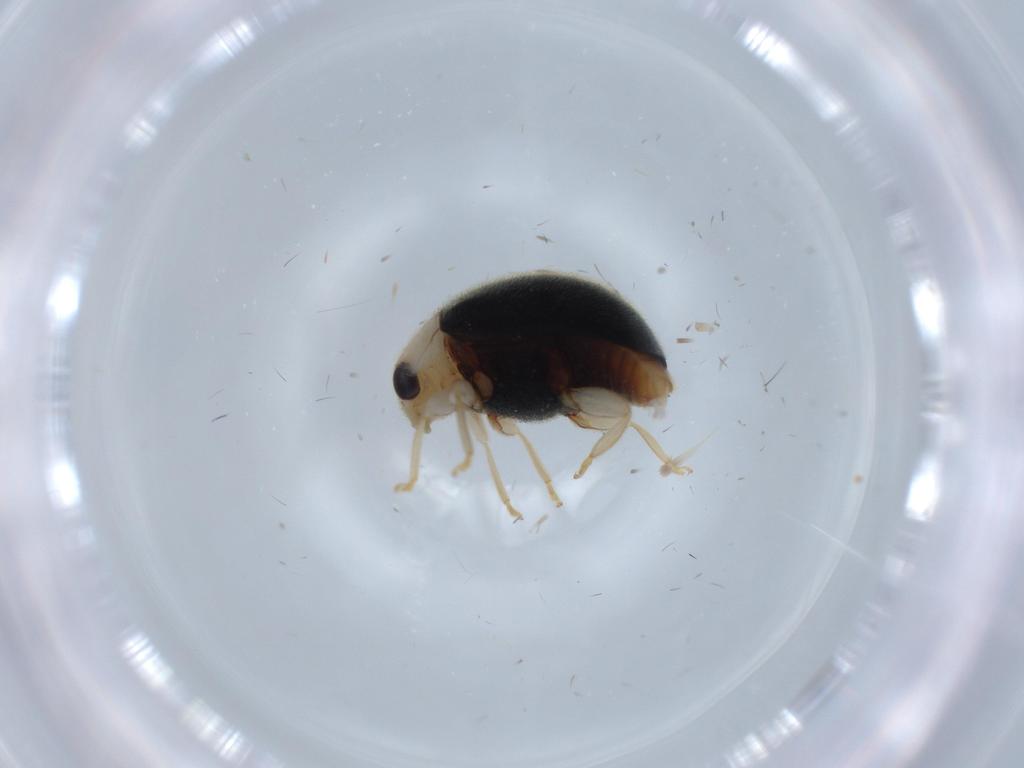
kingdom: Animalia
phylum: Arthropoda
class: Insecta
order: Coleoptera
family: Coccinellidae
